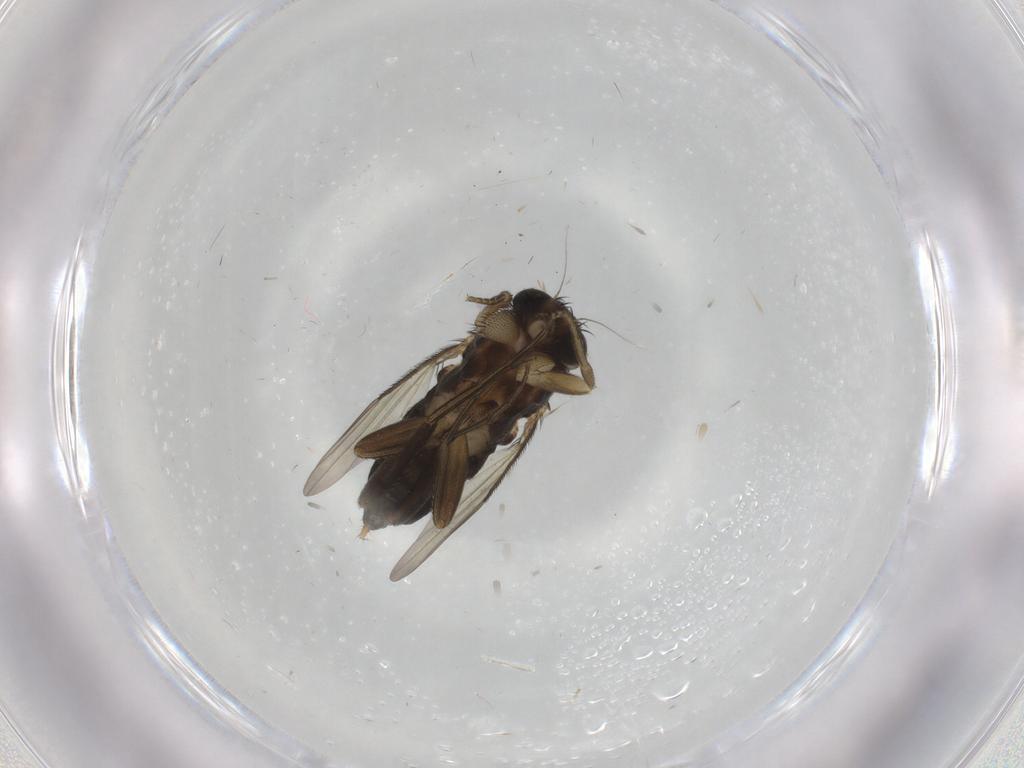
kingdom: Animalia
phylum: Arthropoda
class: Insecta
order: Diptera
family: Phoridae
